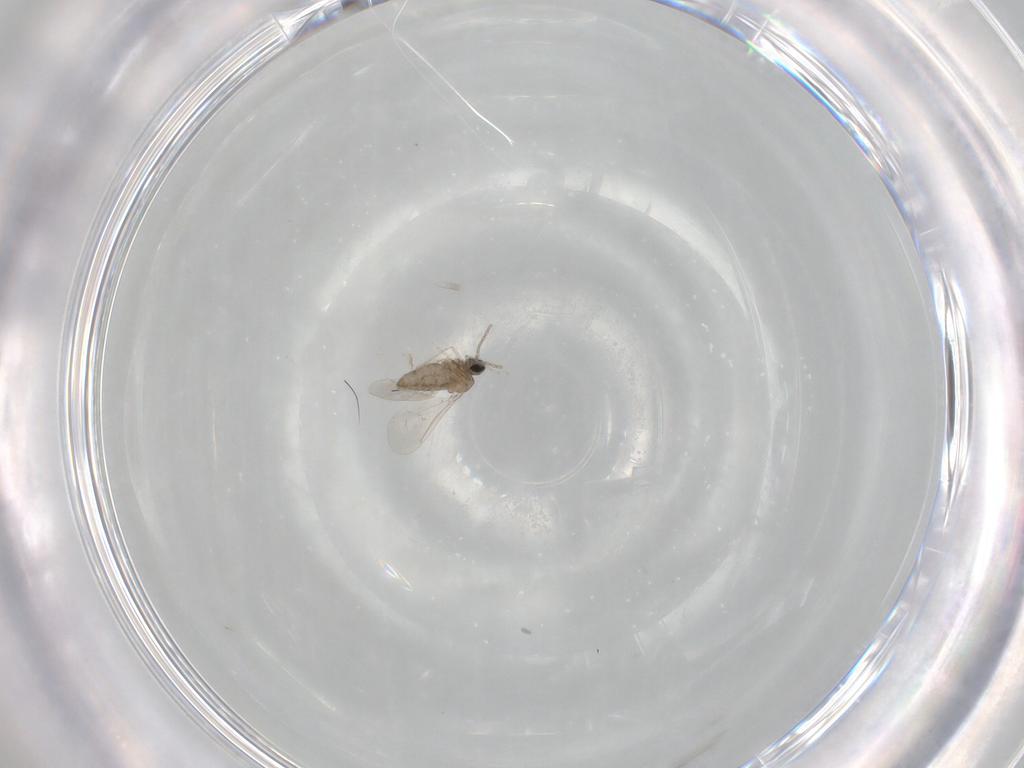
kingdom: Animalia
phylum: Arthropoda
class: Insecta
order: Diptera
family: Cecidomyiidae
